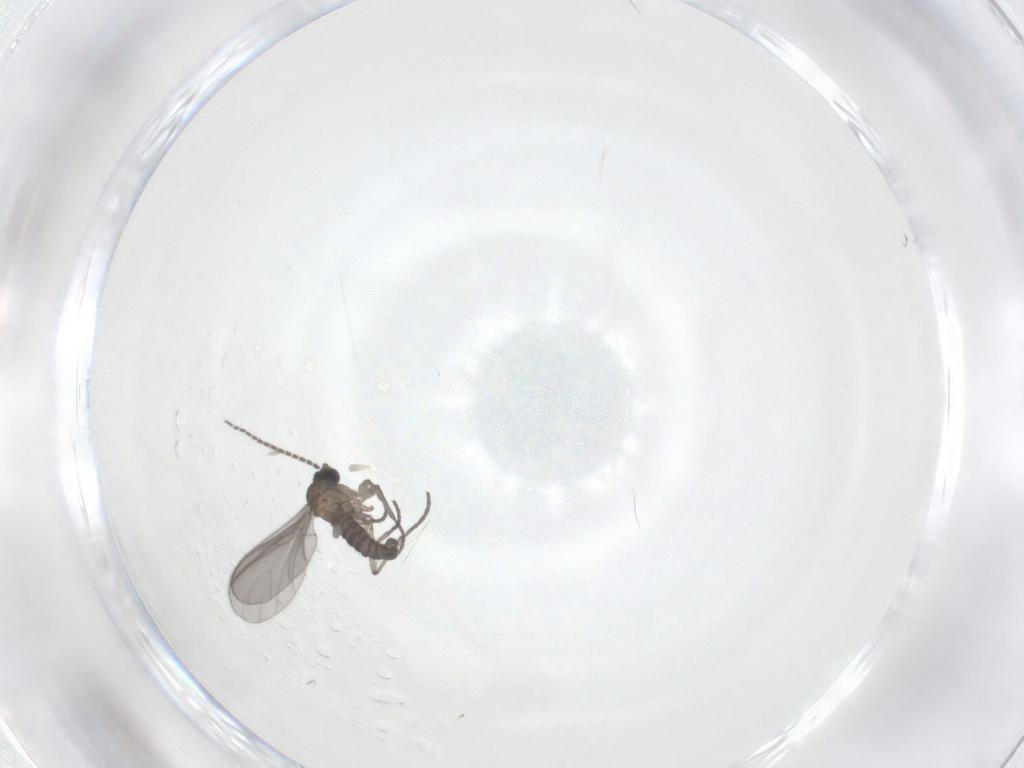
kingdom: Animalia
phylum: Arthropoda
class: Insecta
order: Diptera
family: Sciaridae
